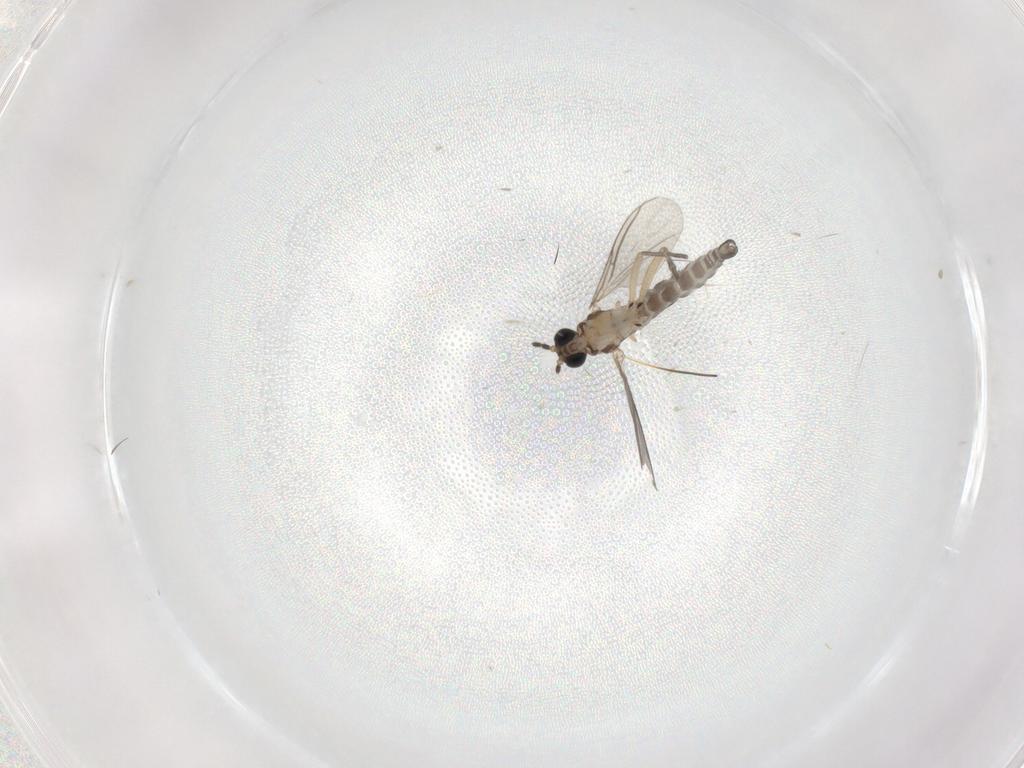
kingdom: Animalia
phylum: Arthropoda
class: Insecta
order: Diptera
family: Sciaridae
